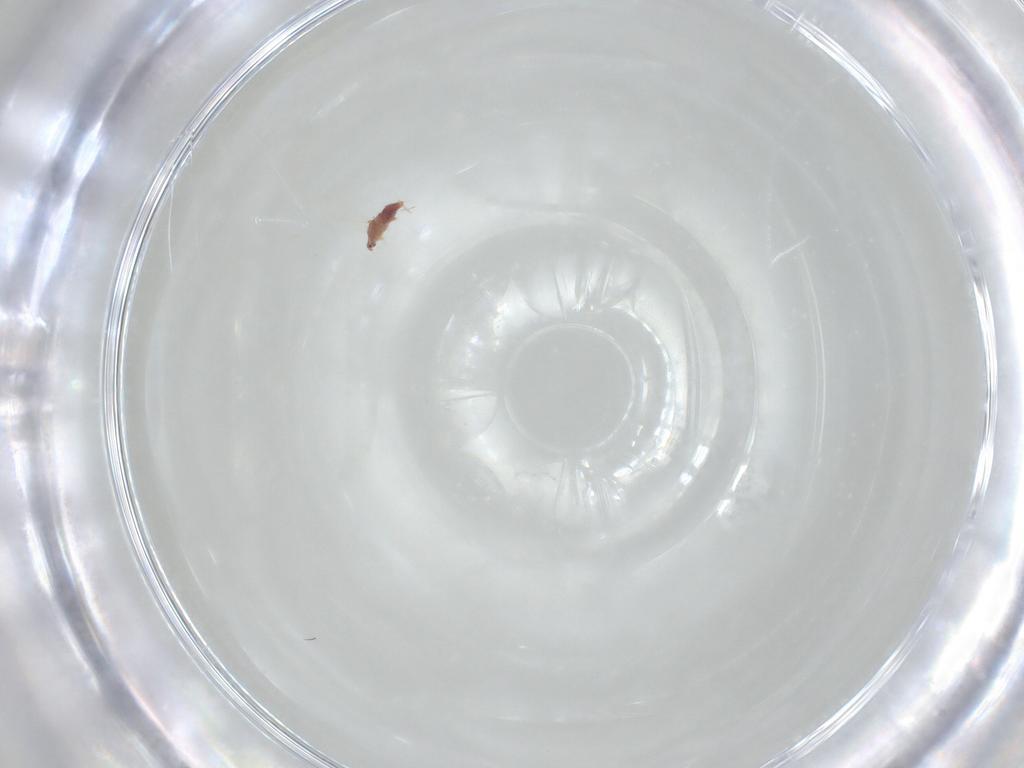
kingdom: Animalia
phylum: Arthropoda
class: Insecta
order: Hemiptera
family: Diaspididae
